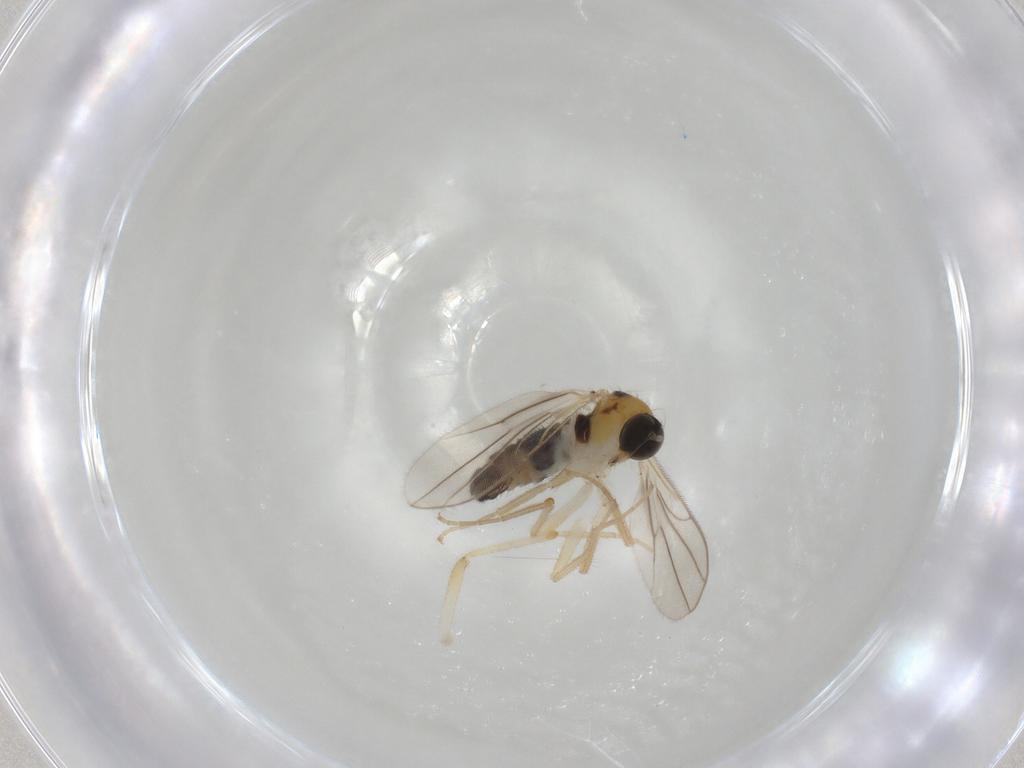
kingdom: Animalia
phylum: Arthropoda
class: Insecta
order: Diptera
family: Hybotidae
